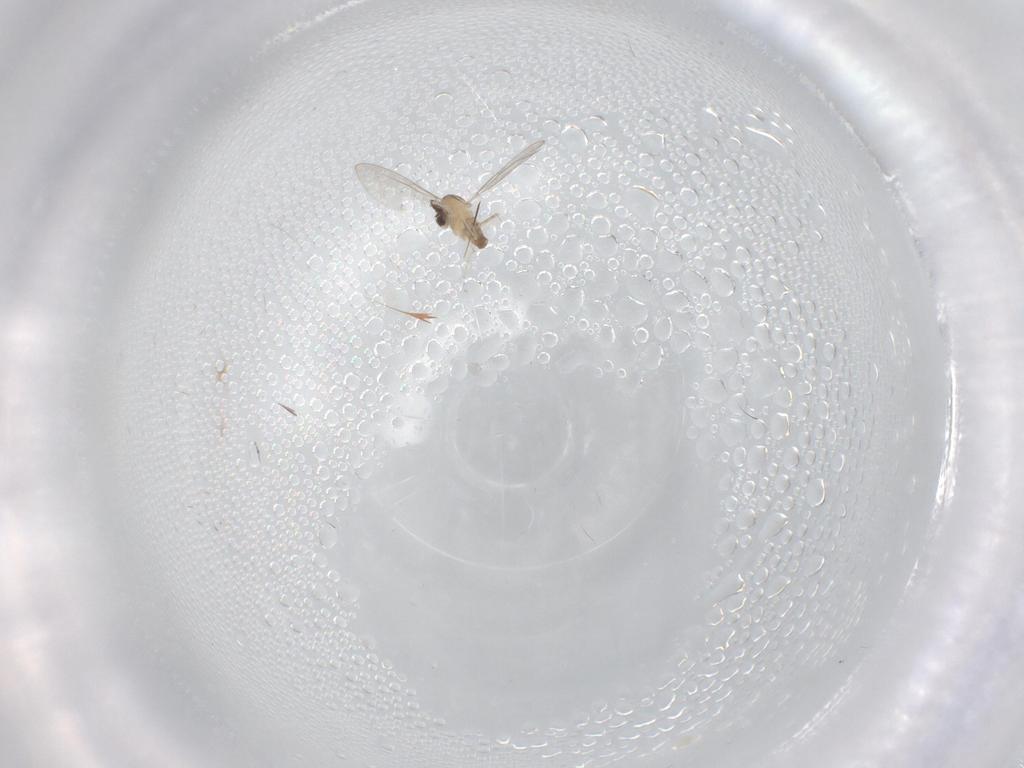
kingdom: Animalia
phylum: Arthropoda
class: Insecta
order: Diptera
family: Cecidomyiidae
